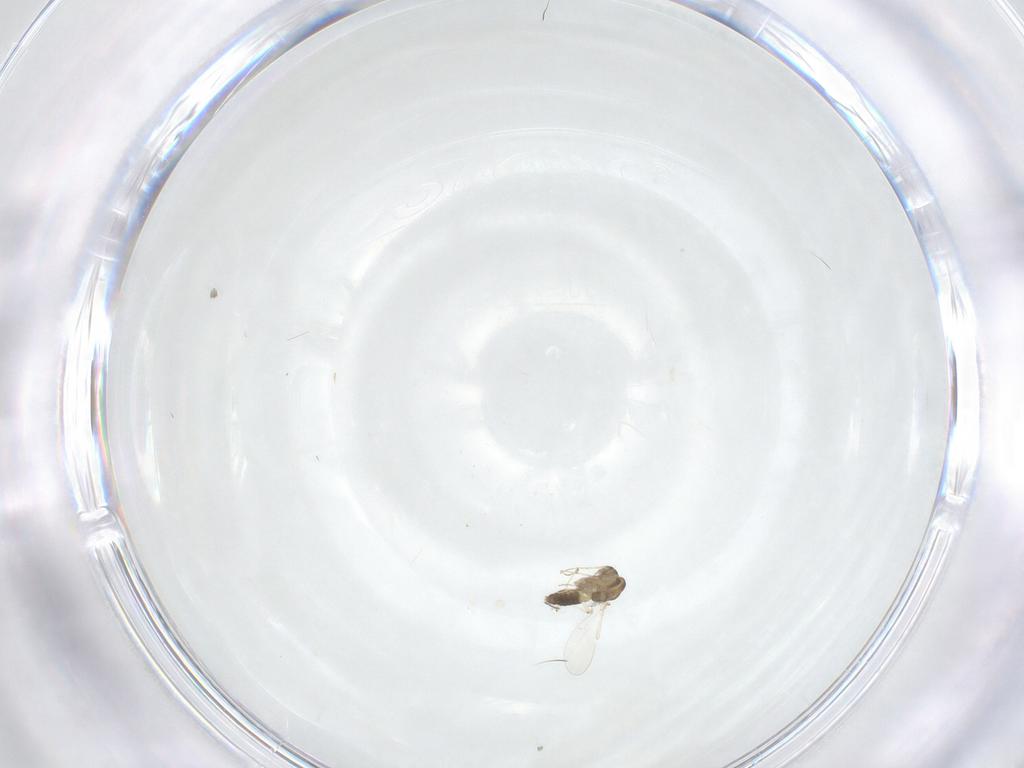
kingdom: Animalia
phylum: Arthropoda
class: Insecta
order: Diptera
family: Chironomidae
